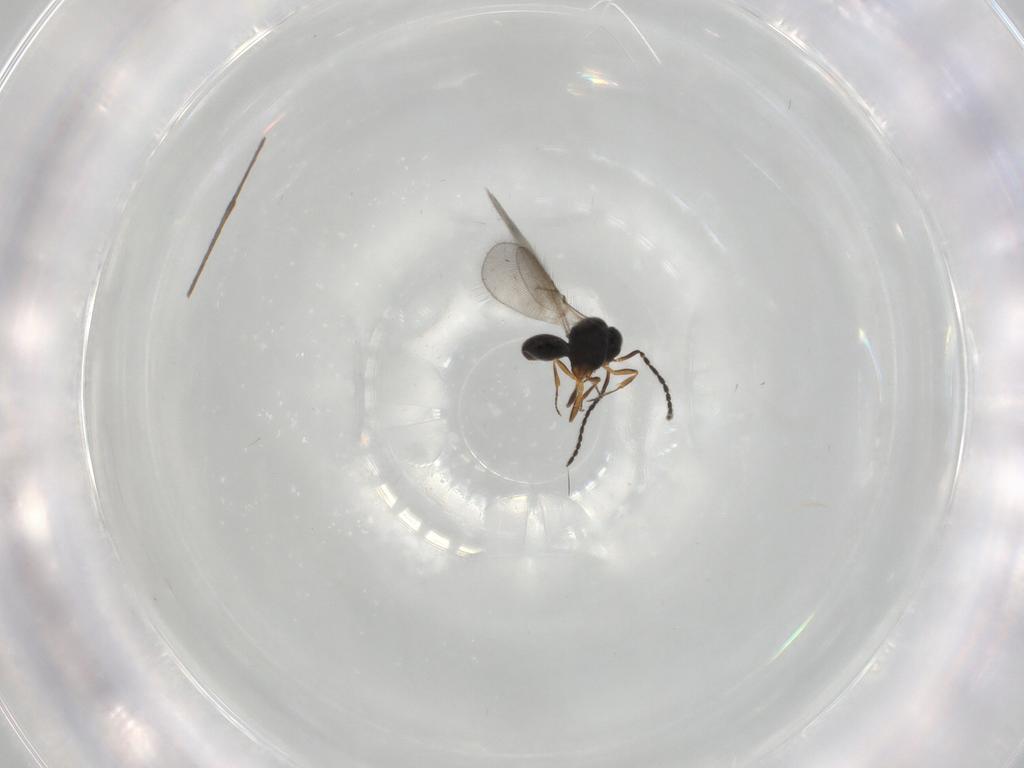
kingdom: Animalia
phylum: Arthropoda
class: Insecta
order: Hymenoptera
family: Scelionidae
